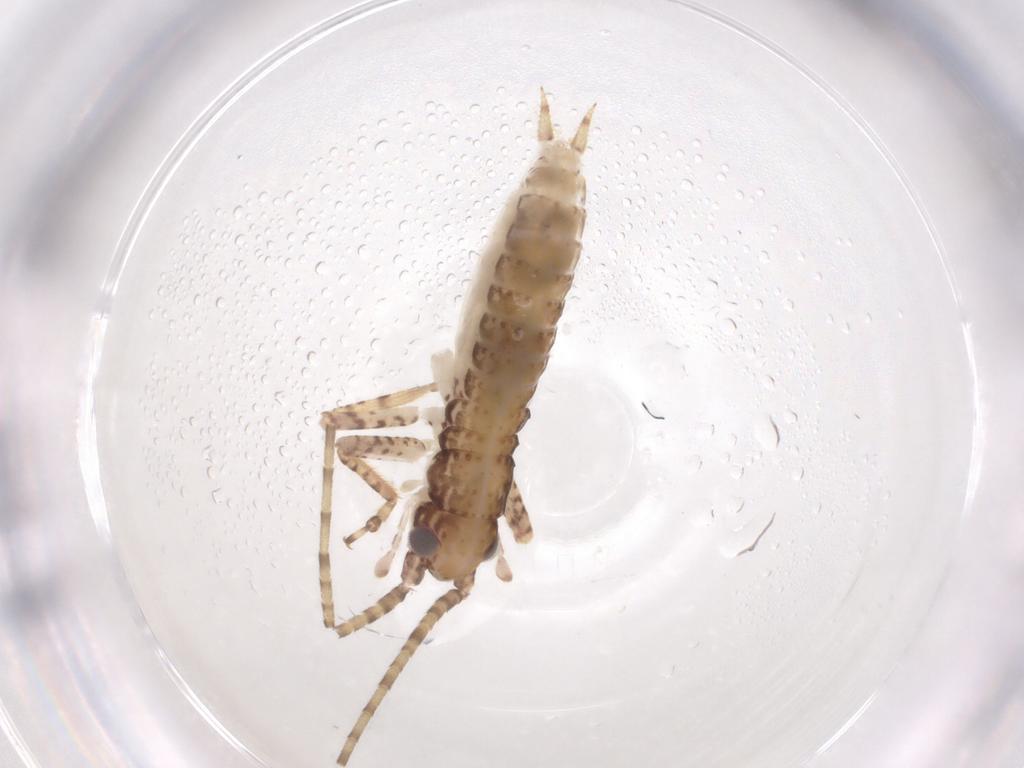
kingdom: Animalia
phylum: Arthropoda
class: Insecta
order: Orthoptera
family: Gryllidae
